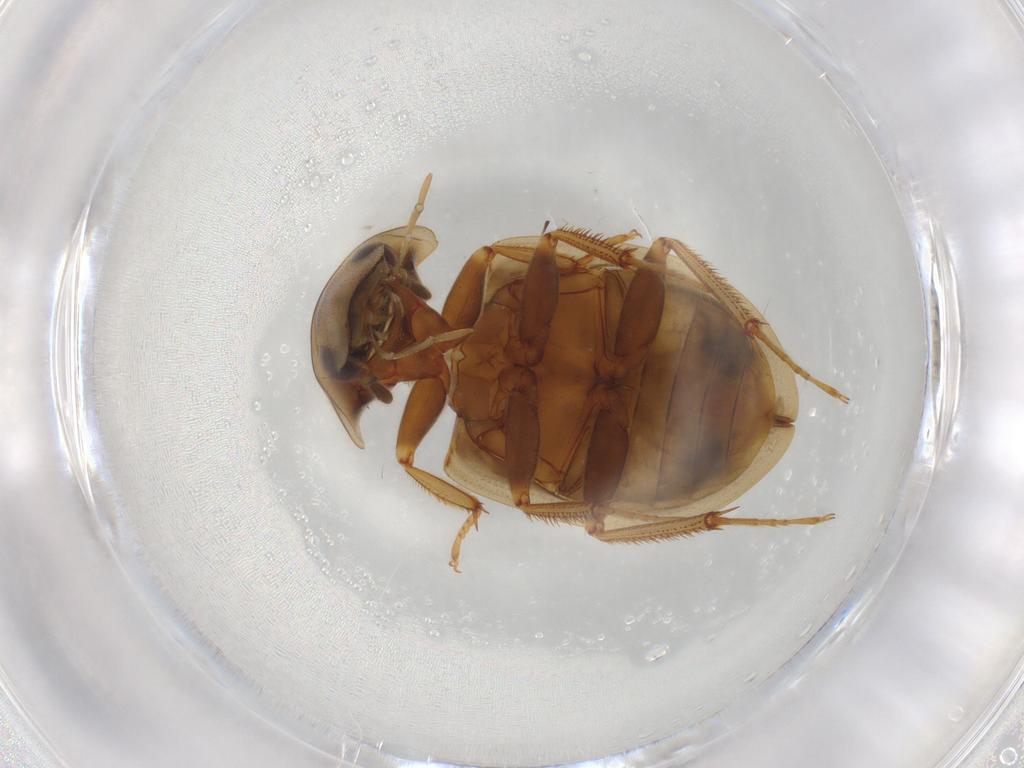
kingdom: Animalia
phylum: Arthropoda
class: Insecta
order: Coleoptera
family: Hydrophilidae
